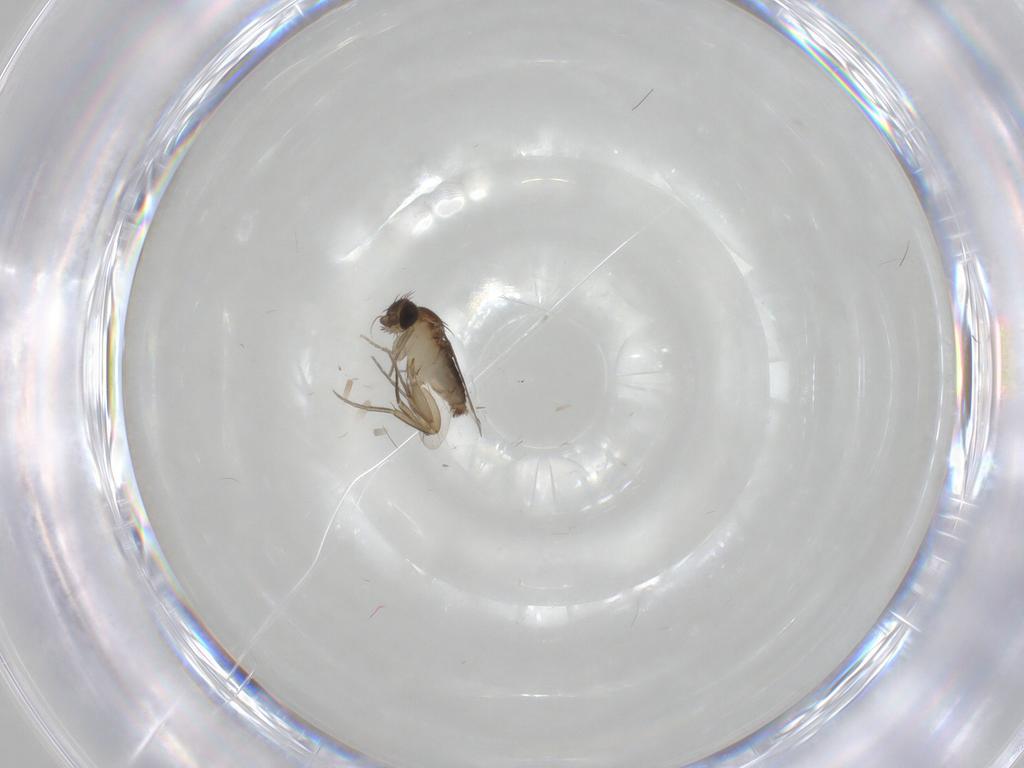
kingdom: Animalia
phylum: Arthropoda
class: Insecta
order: Diptera
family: Phoridae
